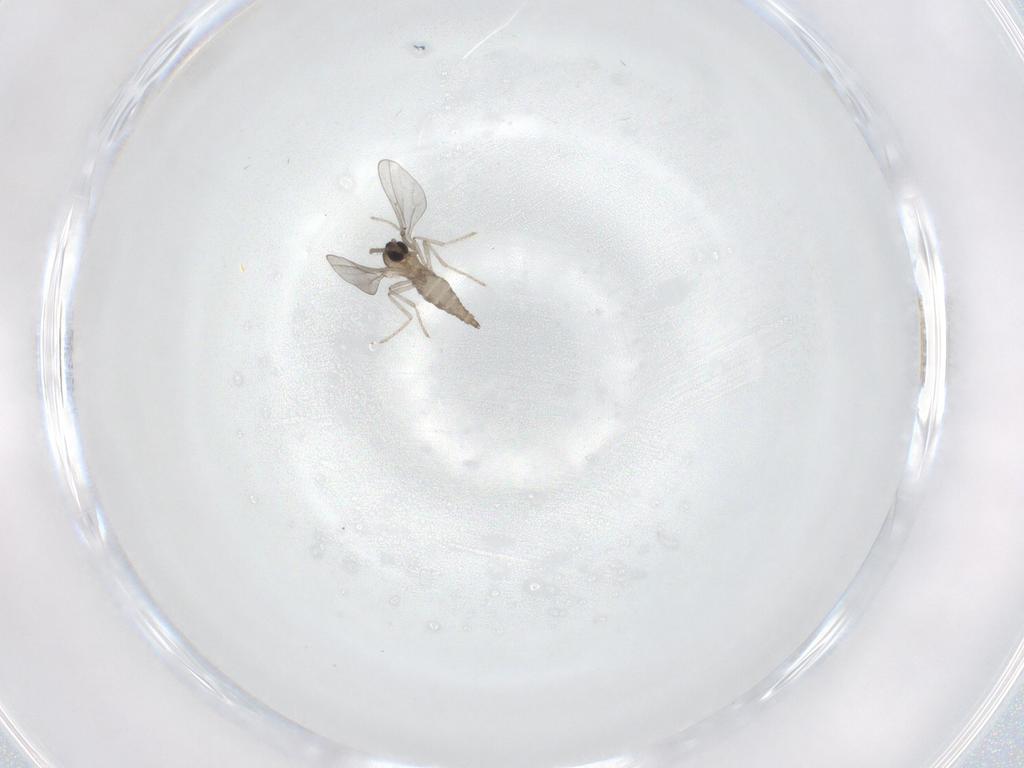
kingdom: Animalia
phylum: Arthropoda
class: Insecta
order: Diptera
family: Cecidomyiidae
